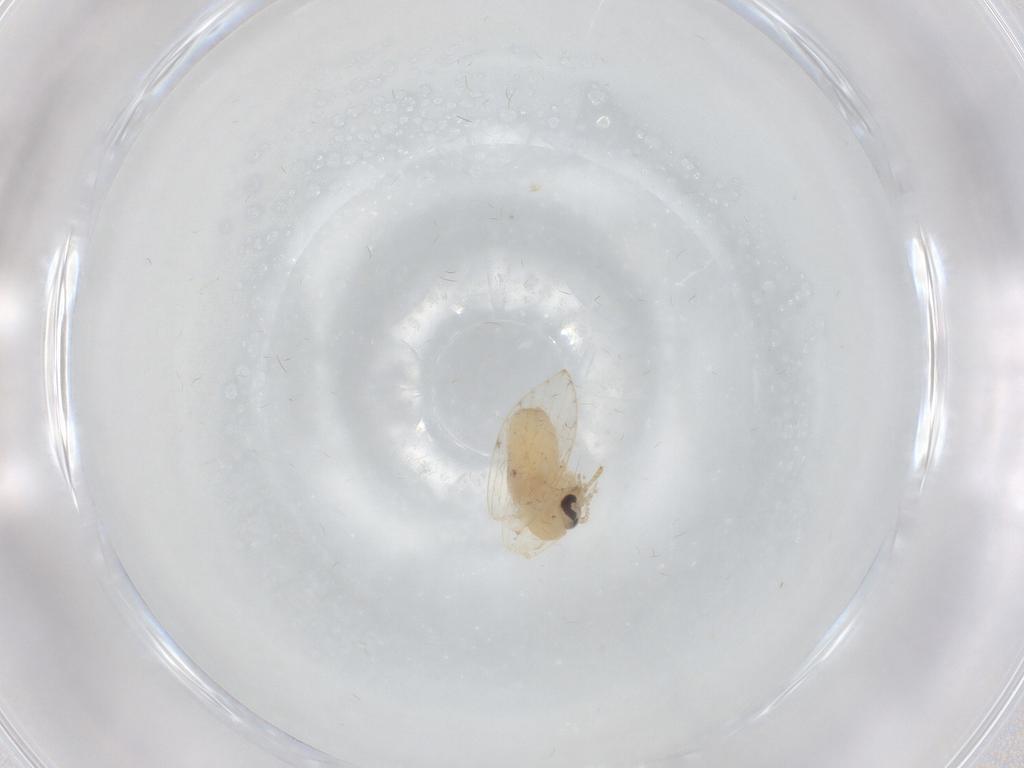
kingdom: Animalia
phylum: Arthropoda
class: Insecta
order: Diptera
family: Psychodidae
